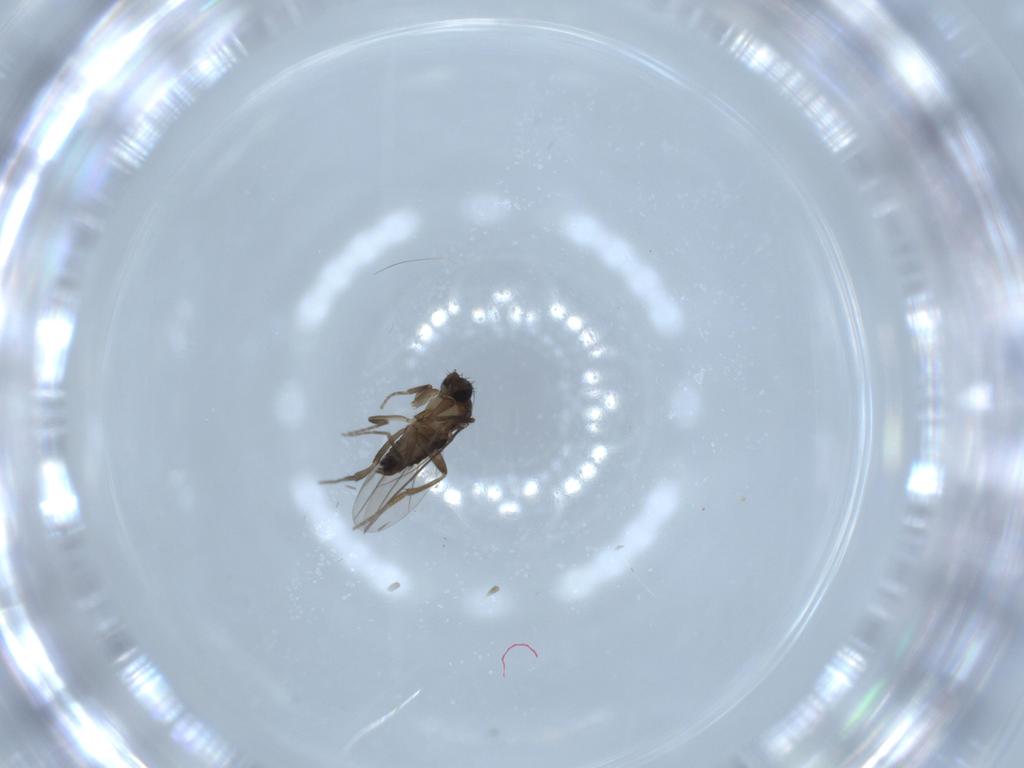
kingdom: Animalia
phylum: Arthropoda
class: Insecta
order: Diptera
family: Phoridae
